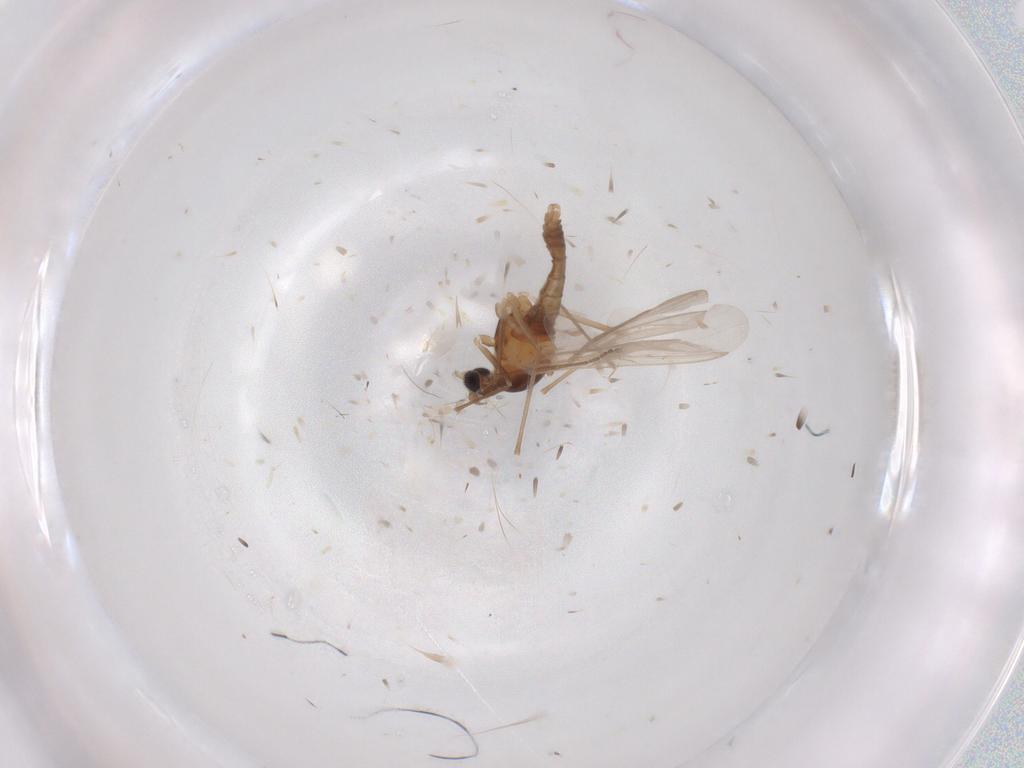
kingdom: Animalia
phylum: Arthropoda
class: Insecta
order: Diptera
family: Cecidomyiidae
